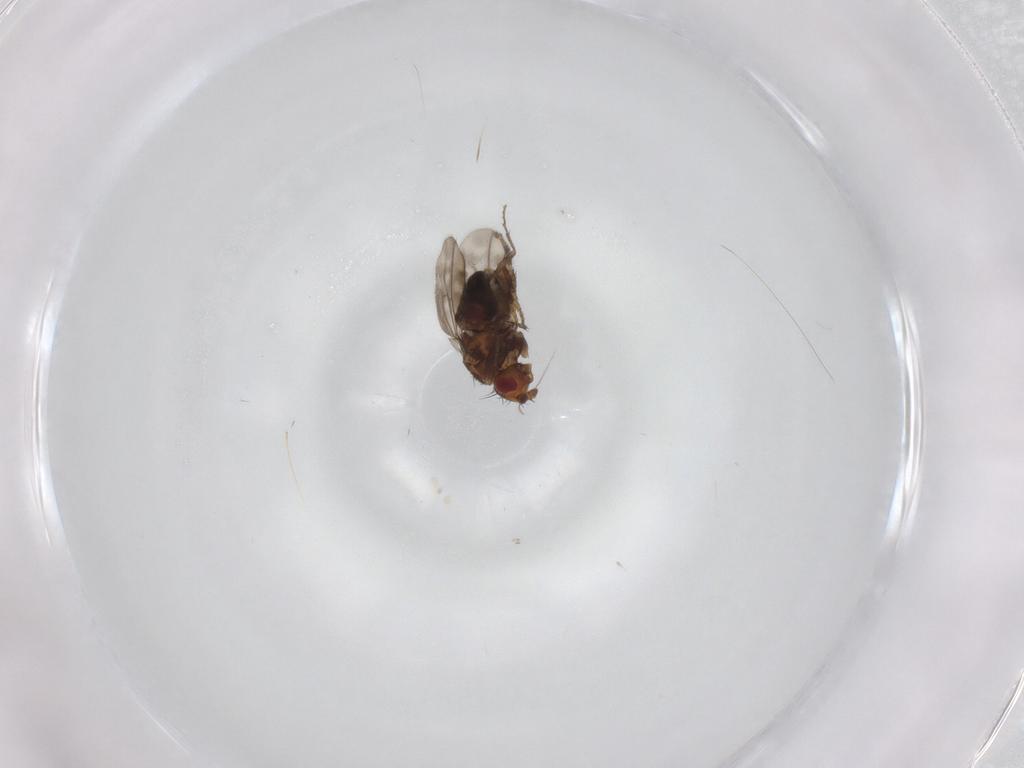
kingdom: Animalia
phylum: Arthropoda
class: Insecta
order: Diptera
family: Sphaeroceridae
